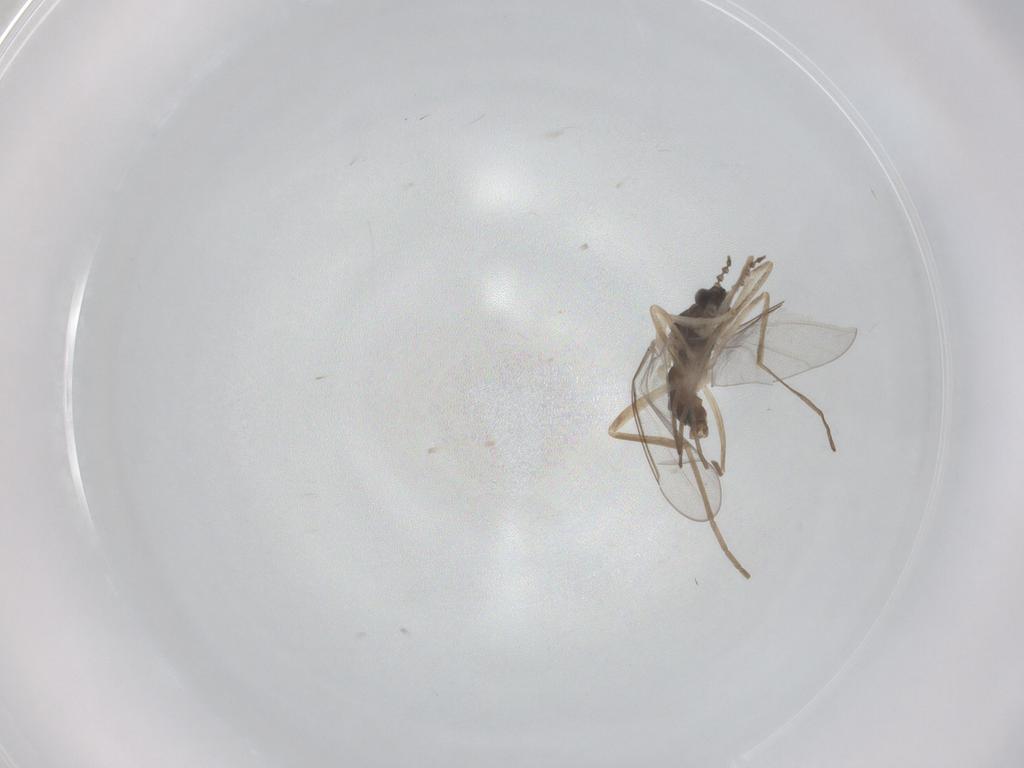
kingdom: Animalia
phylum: Arthropoda
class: Insecta
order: Diptera
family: Cecidomyiidae
